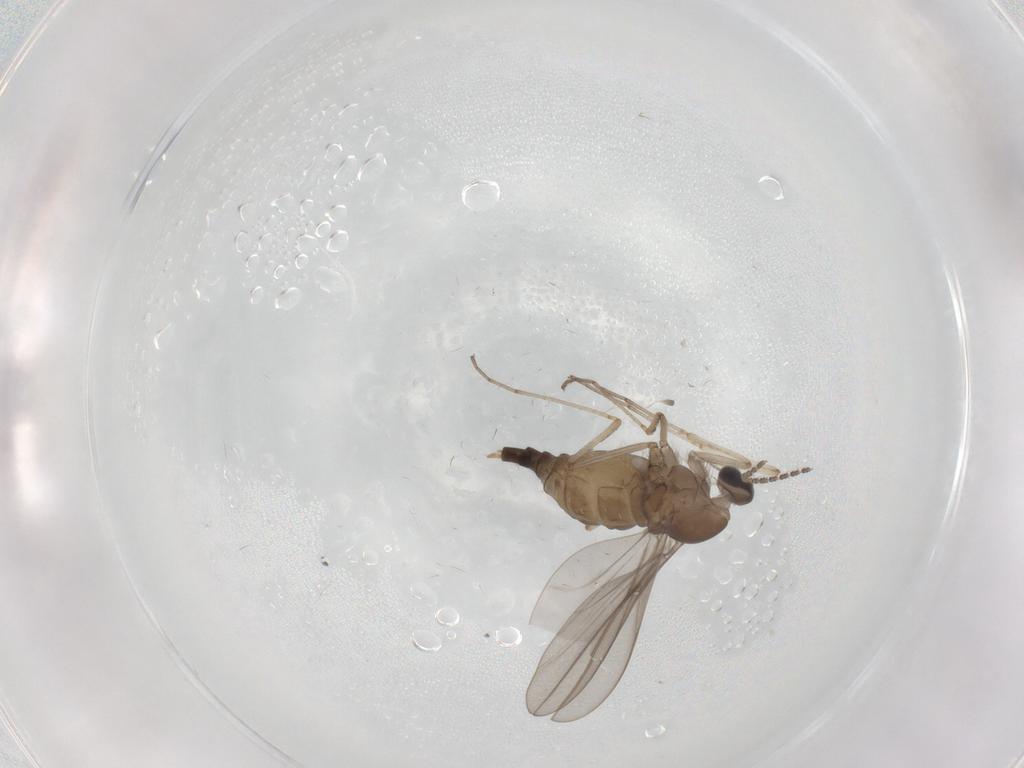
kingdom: Animalia
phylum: Arthropoda
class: Insecta
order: Diptera
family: Cecidomyiidae
